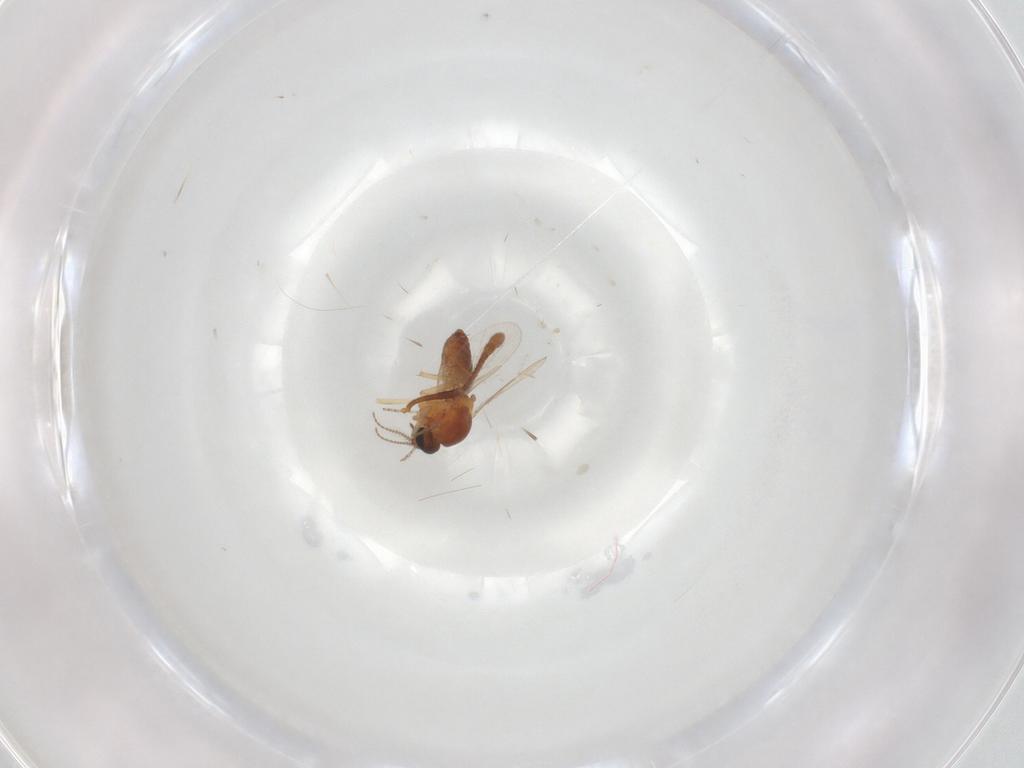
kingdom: Animalia
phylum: Arthropoda
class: Insecta
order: Diptera
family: Ceratopogonidae
